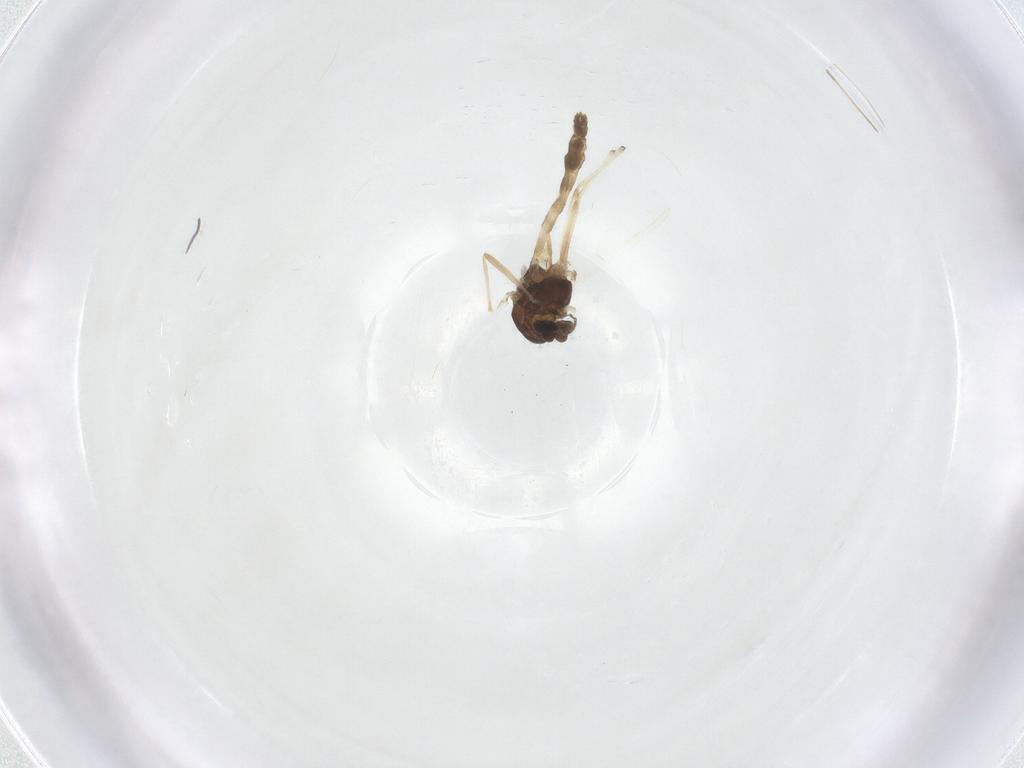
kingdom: Animalia
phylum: Arthropoda
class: Insecta
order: Diptera
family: Chironomidae
